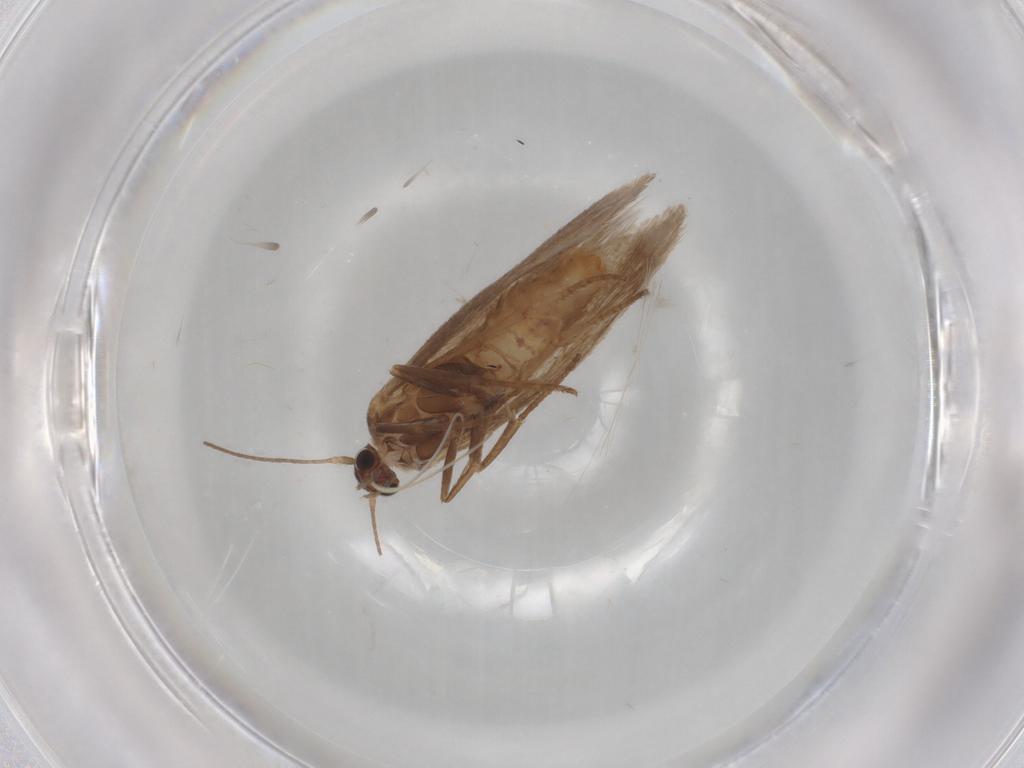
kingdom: Animalia
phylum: Arthropoda
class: Insecta
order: Lepidoptera
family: Limacodidae
